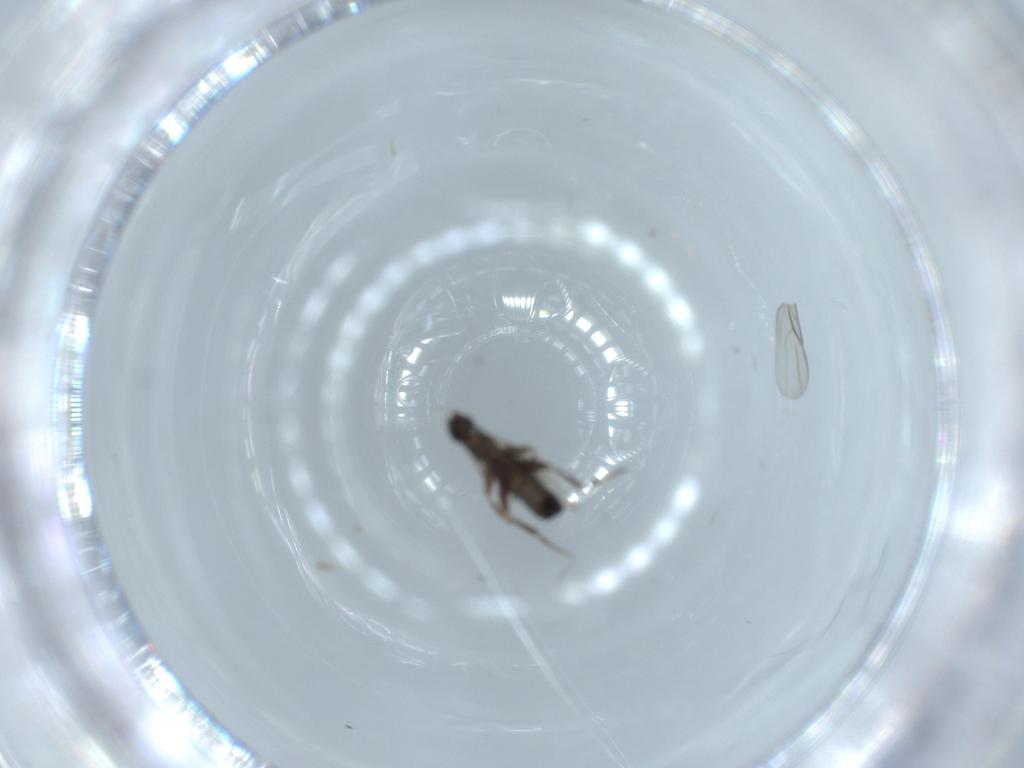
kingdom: Animalia
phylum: Arthropoda
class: Insecta
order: Diptera
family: Phoridae
